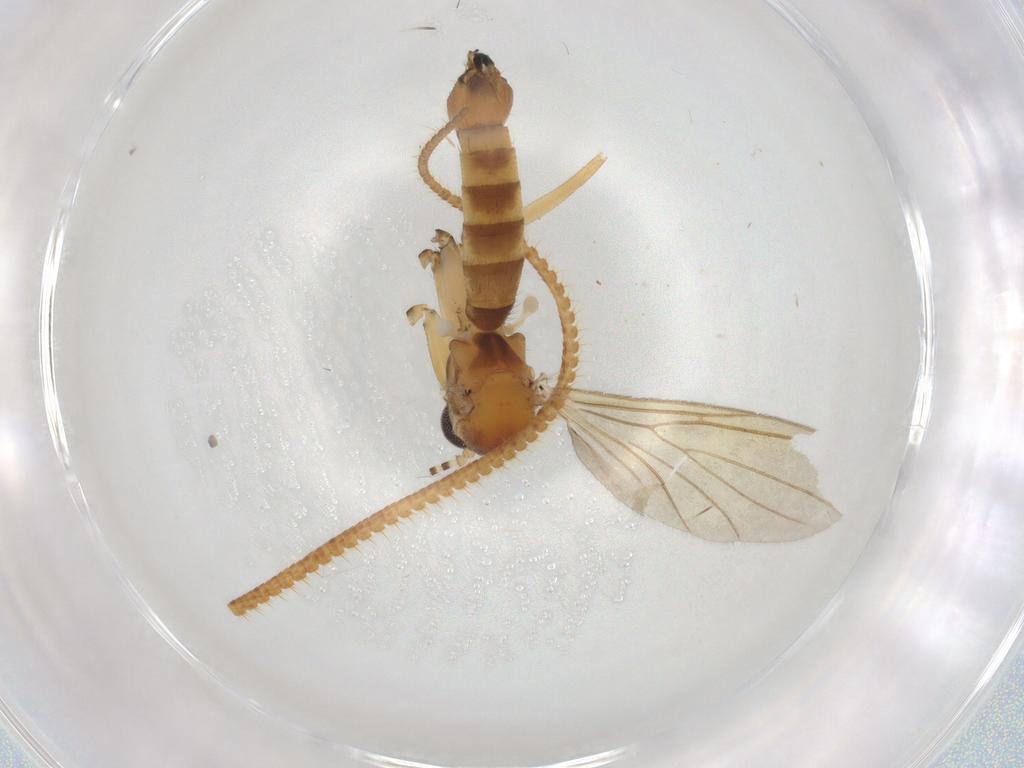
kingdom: Animalia
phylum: Arthropoda
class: Insecta
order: Diptera
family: Mycetophilidae
